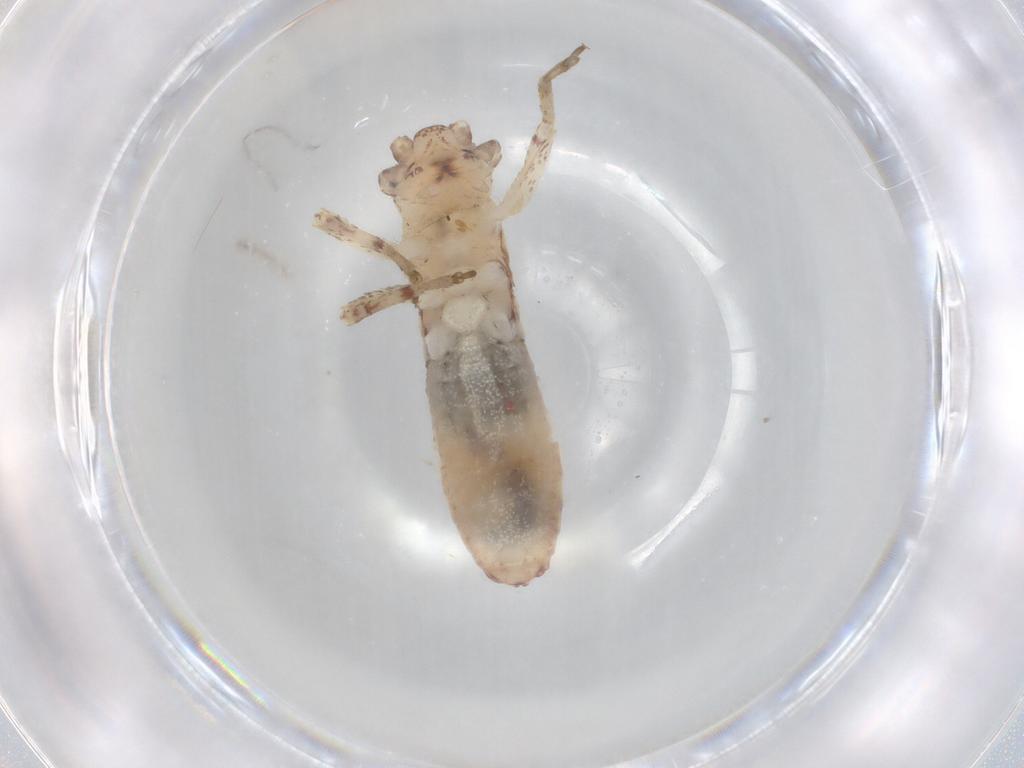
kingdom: Animalia
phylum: Arthropoda
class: Insecta
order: Orthoptera
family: Mogoplistidae
